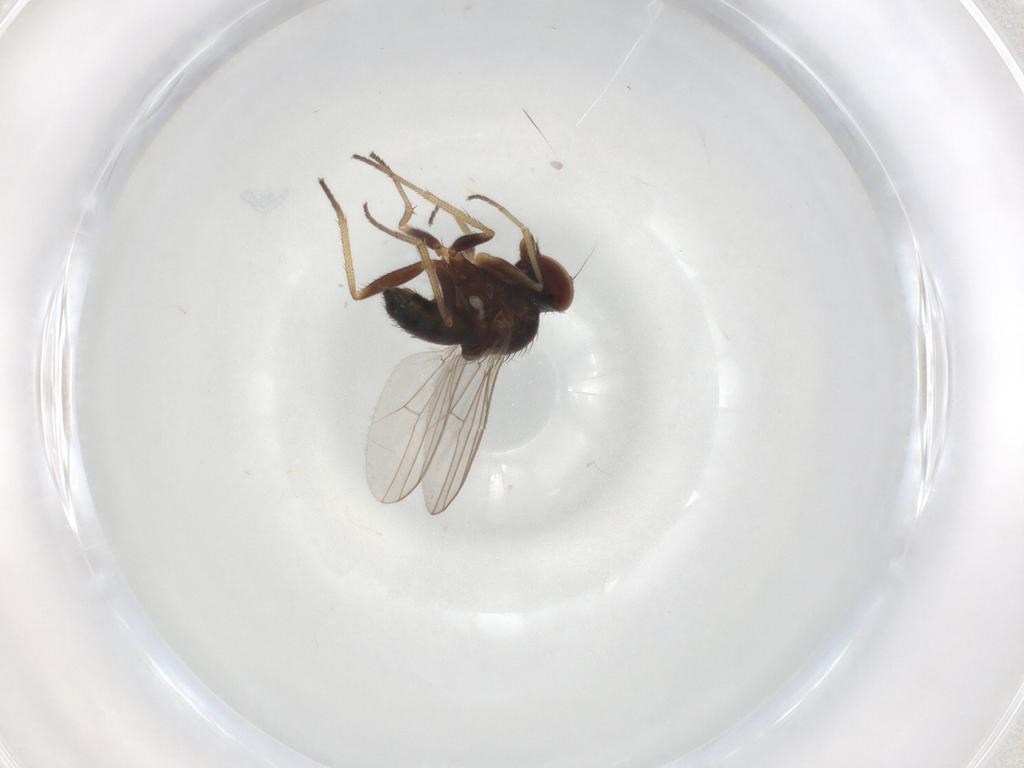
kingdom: Animalia
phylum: Arthropoda
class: Insecta
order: Diptera
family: Dolichopodidae
